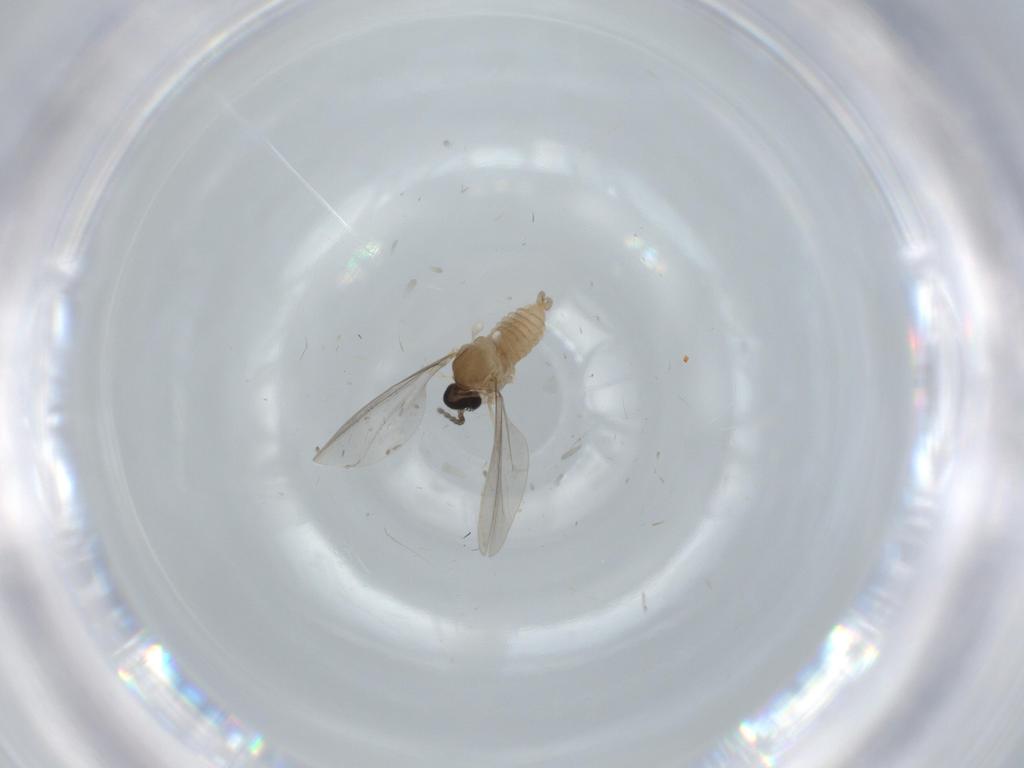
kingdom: Animalia
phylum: Arthropoda
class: Insecta
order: Diptera
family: Cecidomyiidae
